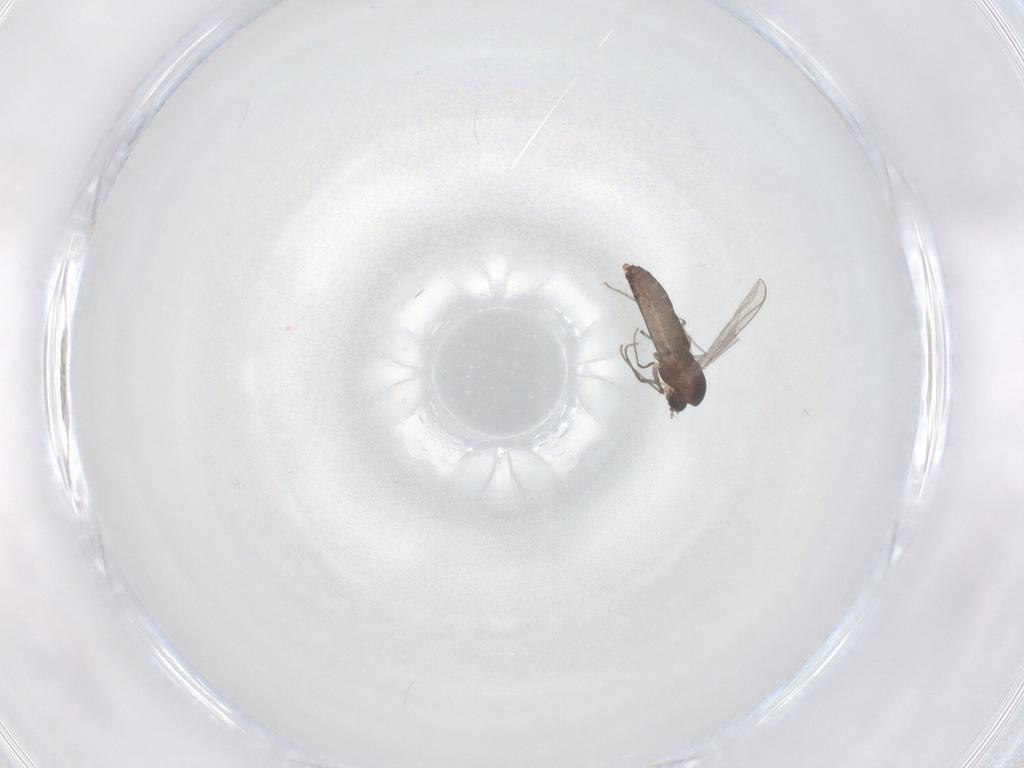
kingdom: Animalia
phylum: Arthropoda
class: Insecta
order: Diptera
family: Chironomidae
